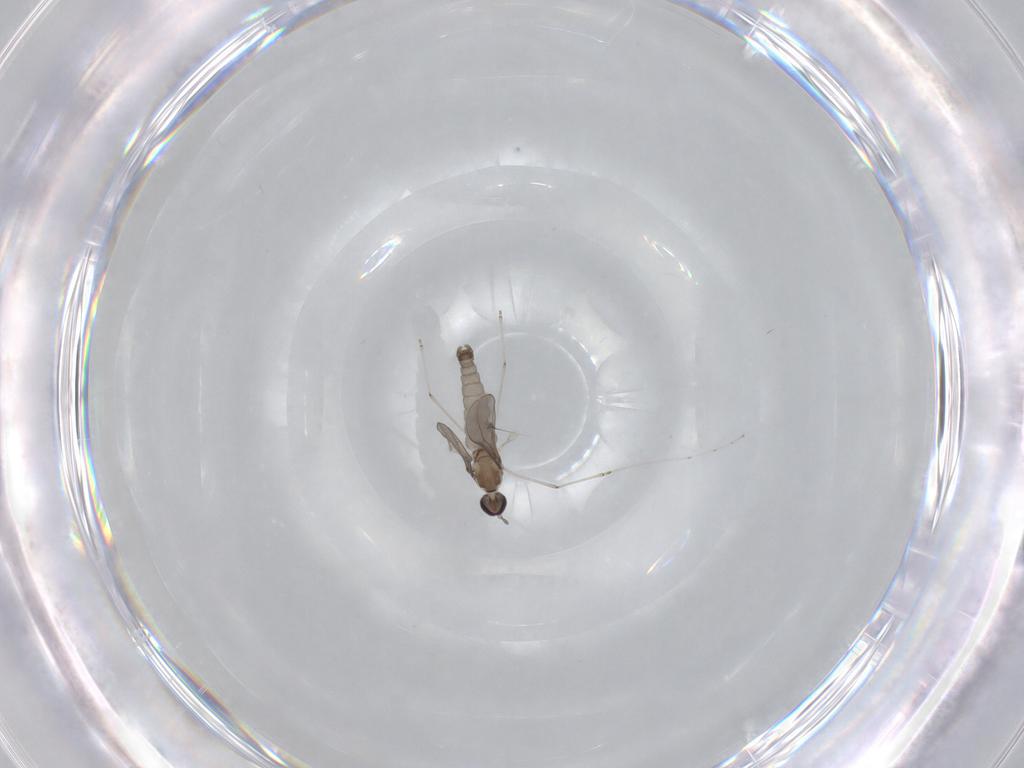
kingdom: Animalia
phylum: Arthropoda
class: Insecta
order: Diptera
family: Cecidomyiidae
